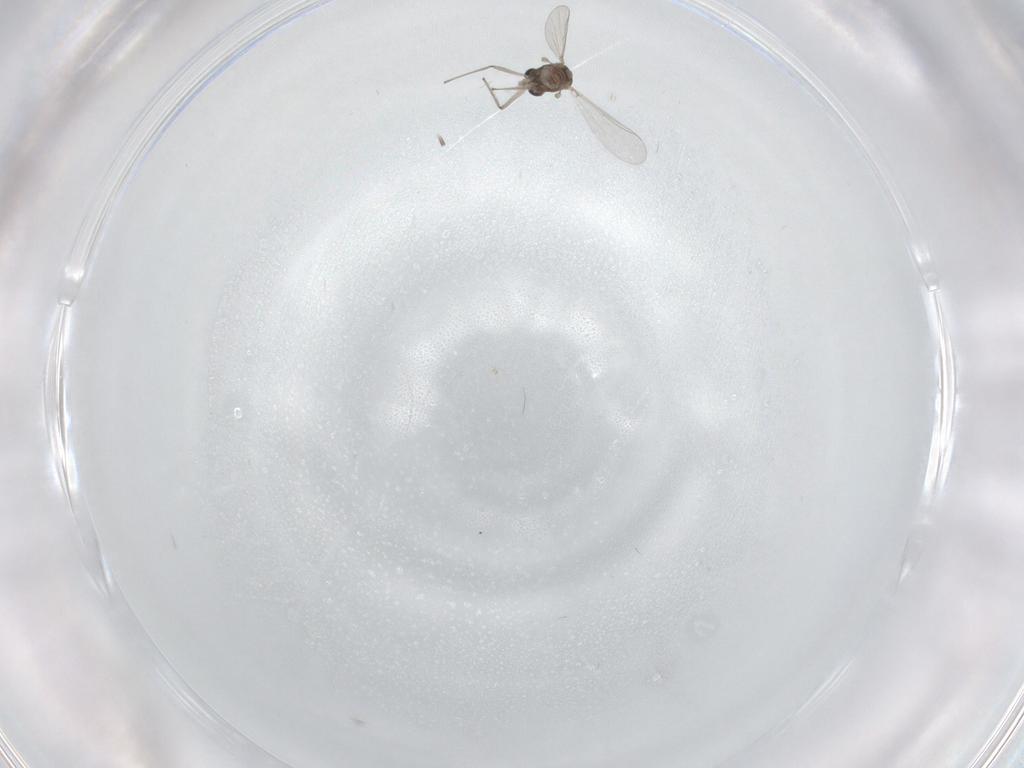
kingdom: Animalia
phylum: Arthropoda
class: Insecta
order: Diptera
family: Chironomidae
